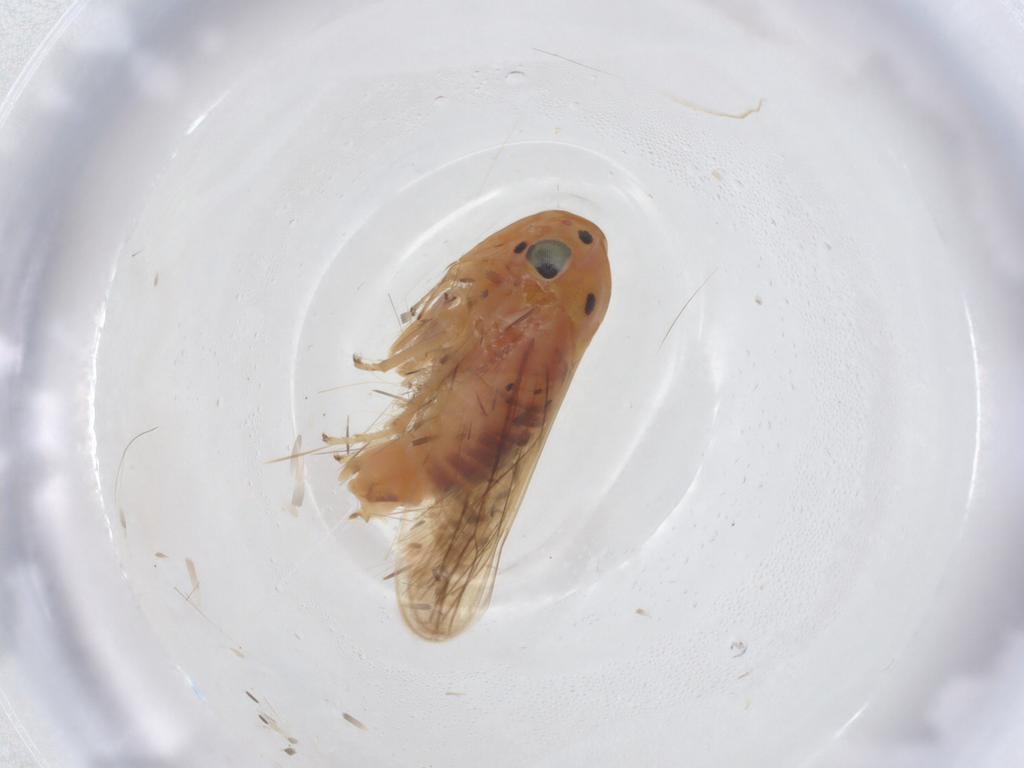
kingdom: Animalia
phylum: Arthropoda
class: Insecta
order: Hemiptera
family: Cicadellidae
